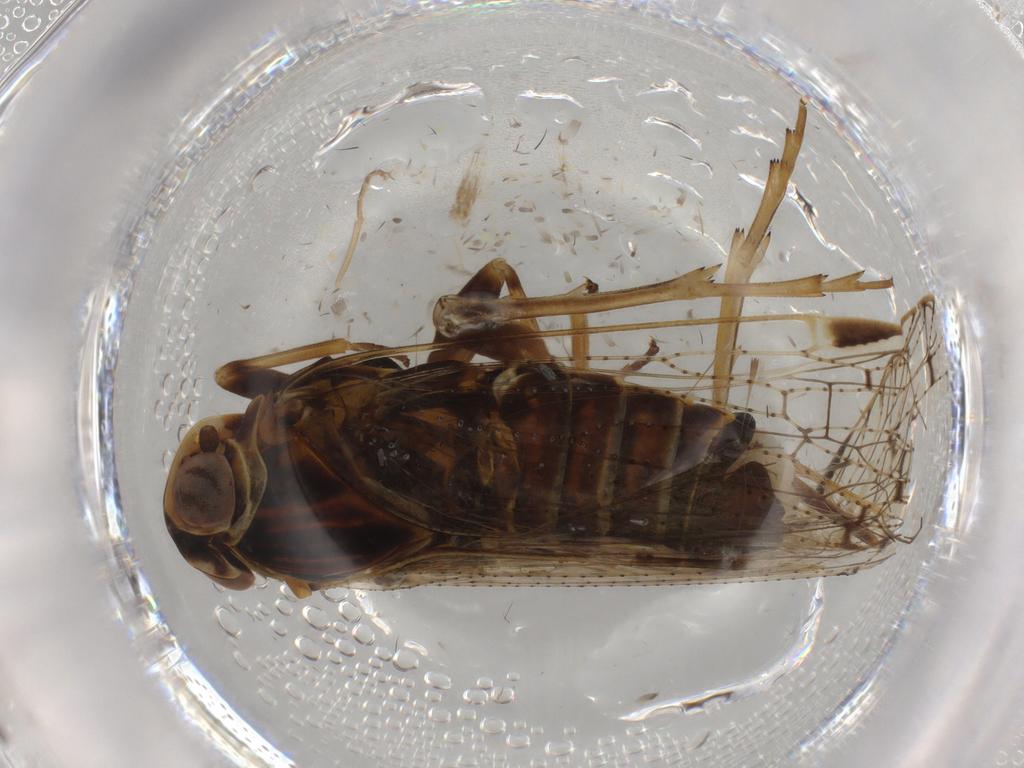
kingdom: Animalia
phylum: Arthropoda
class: Insecta
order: Hemiptera
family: Cixiidae
